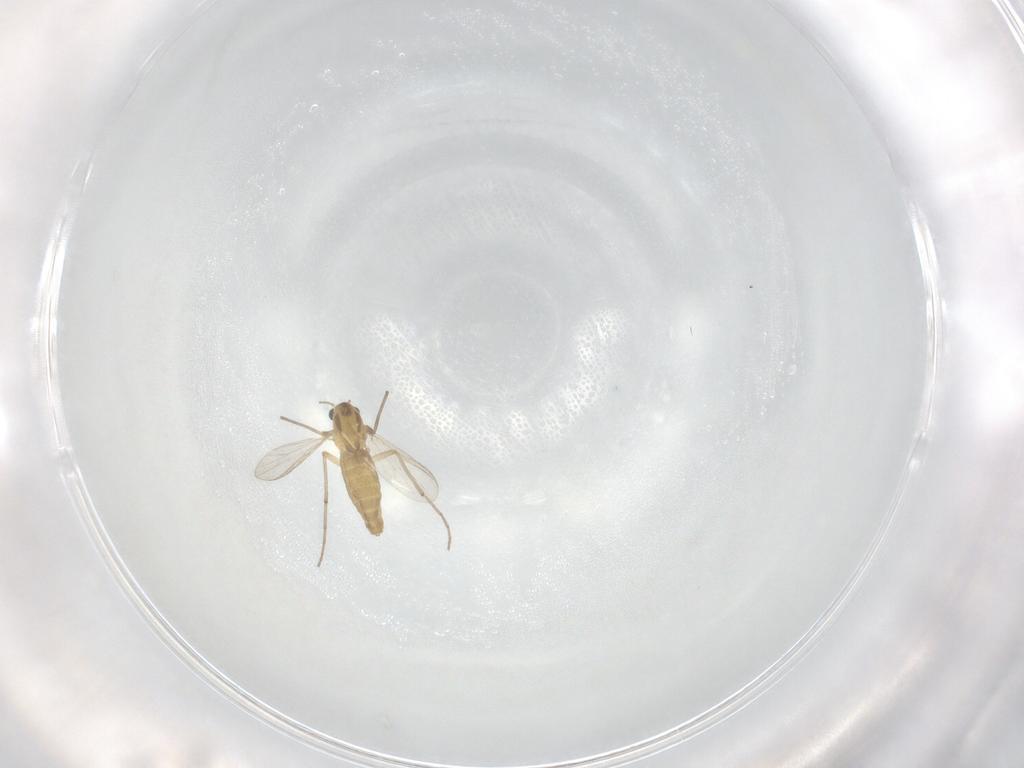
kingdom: Animalia
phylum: Arthropoda
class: Insecta
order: Diptera
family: Chironomidae
